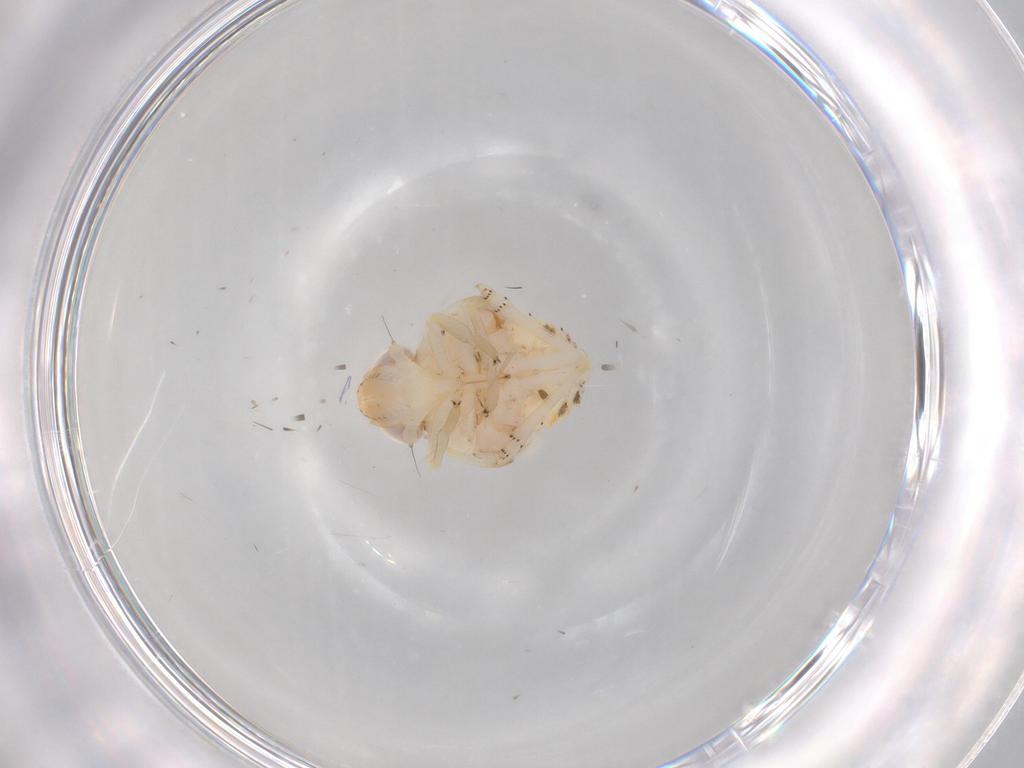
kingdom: Animalia
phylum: Arthropoda
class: Insecta
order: Hemiptera
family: Nogodinidae
